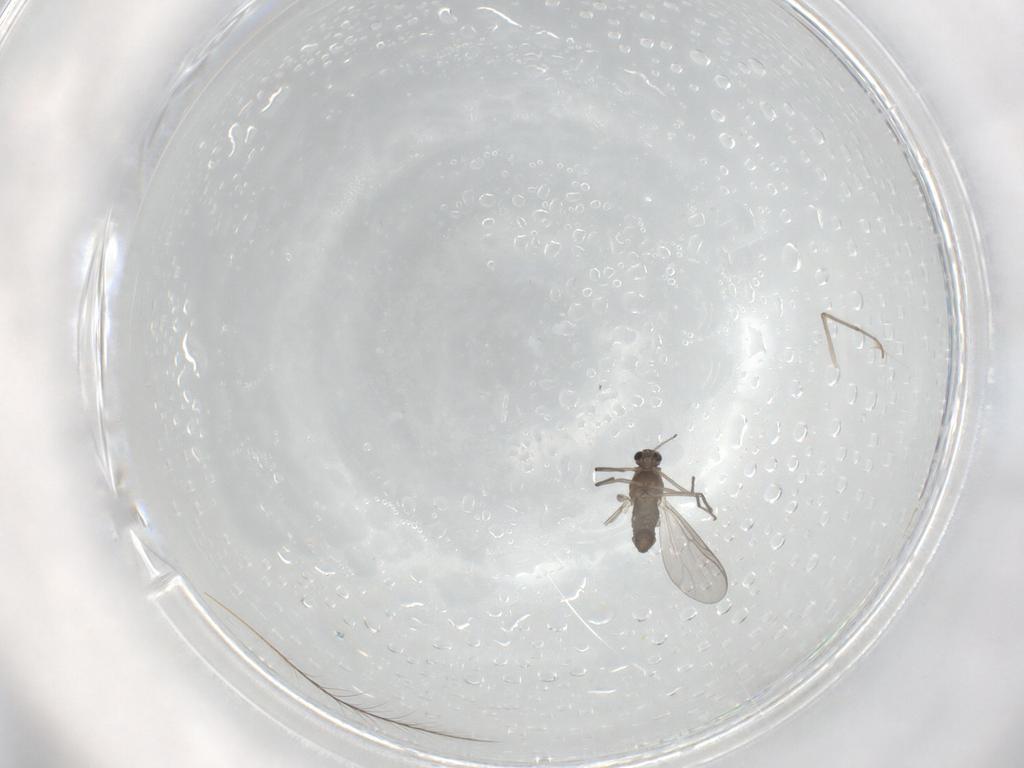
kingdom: Animalia
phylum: Arthropoda
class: Insecta
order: Diptera
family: Chironomidae
